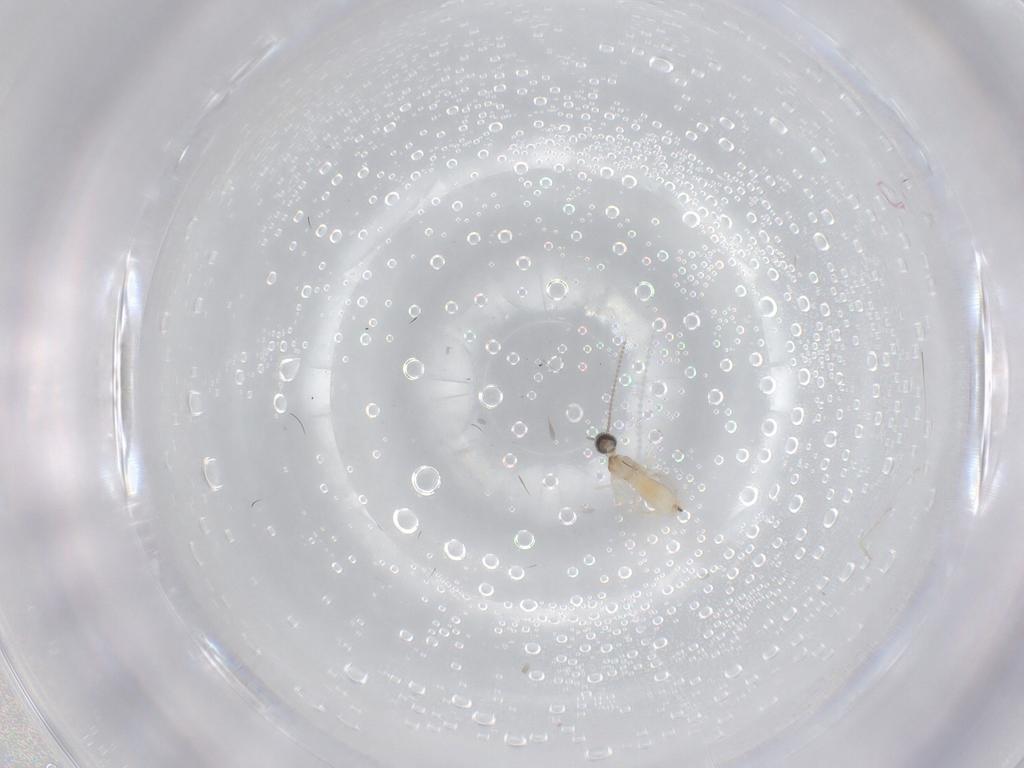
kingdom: Animalia
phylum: Arthropoda
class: Insecta
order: Diptera
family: Cecidomyiidae
